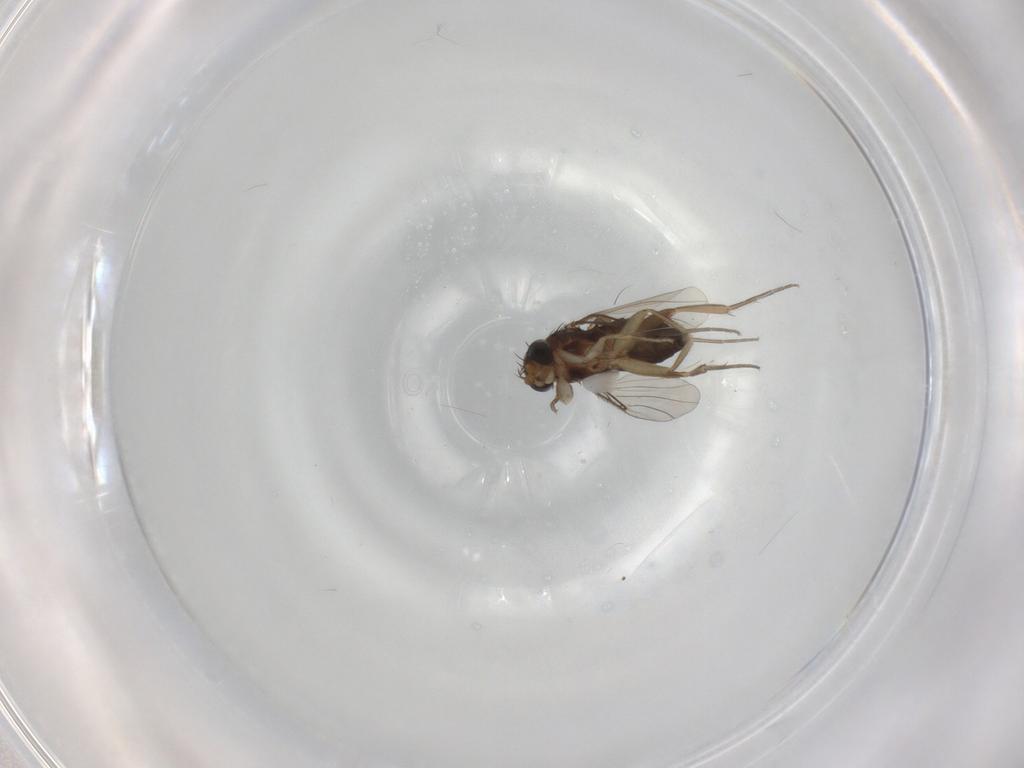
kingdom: Animalia
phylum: Arthropoda
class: Insecta
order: Diptera
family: Phoridae
